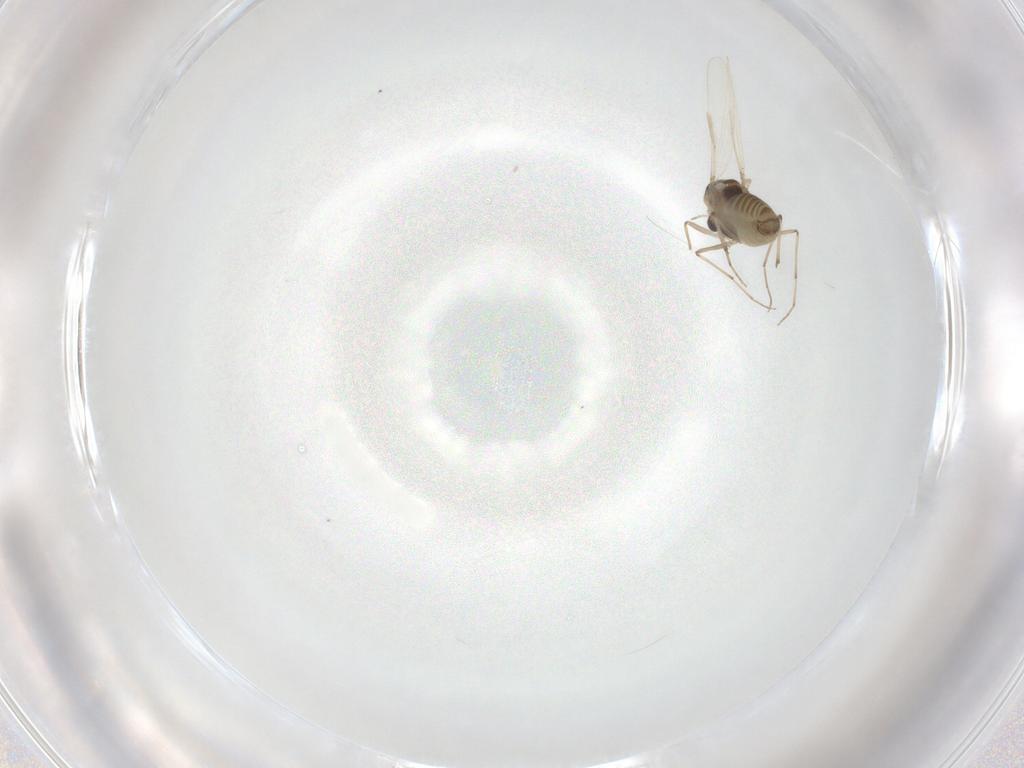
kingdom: Animalia
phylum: Arthropoda
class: Insecta
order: Diptera
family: Chironomidae
